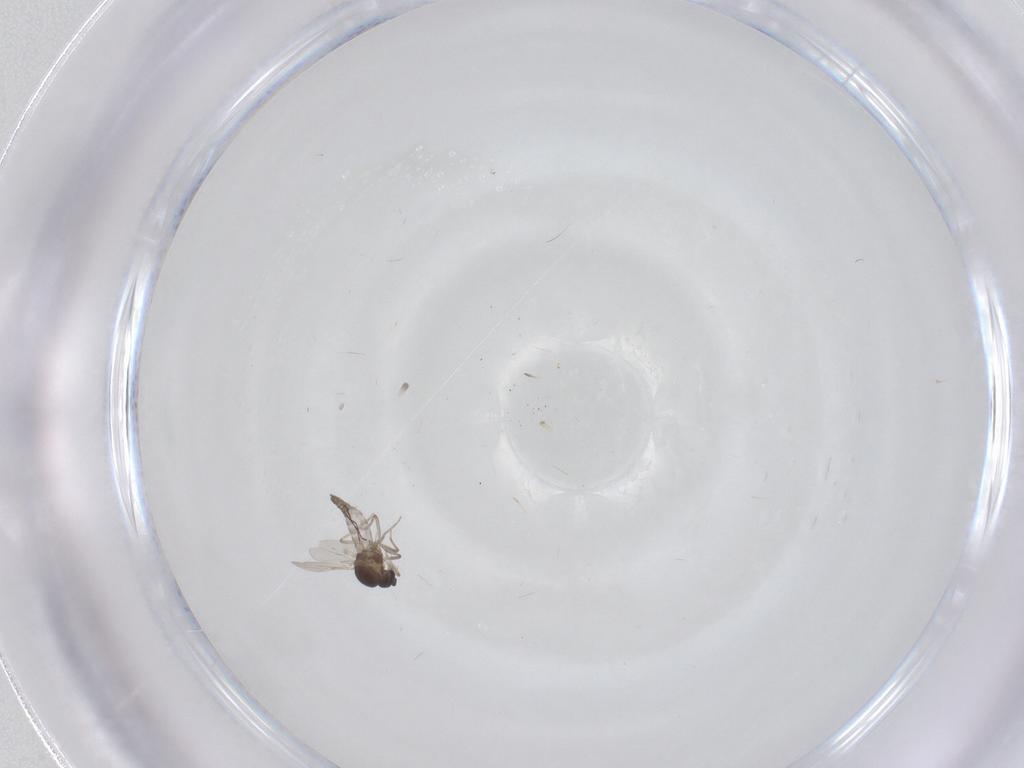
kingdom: Animalia
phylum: Arthropoda
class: Insecta
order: Diptera
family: Ceratopogonidae
